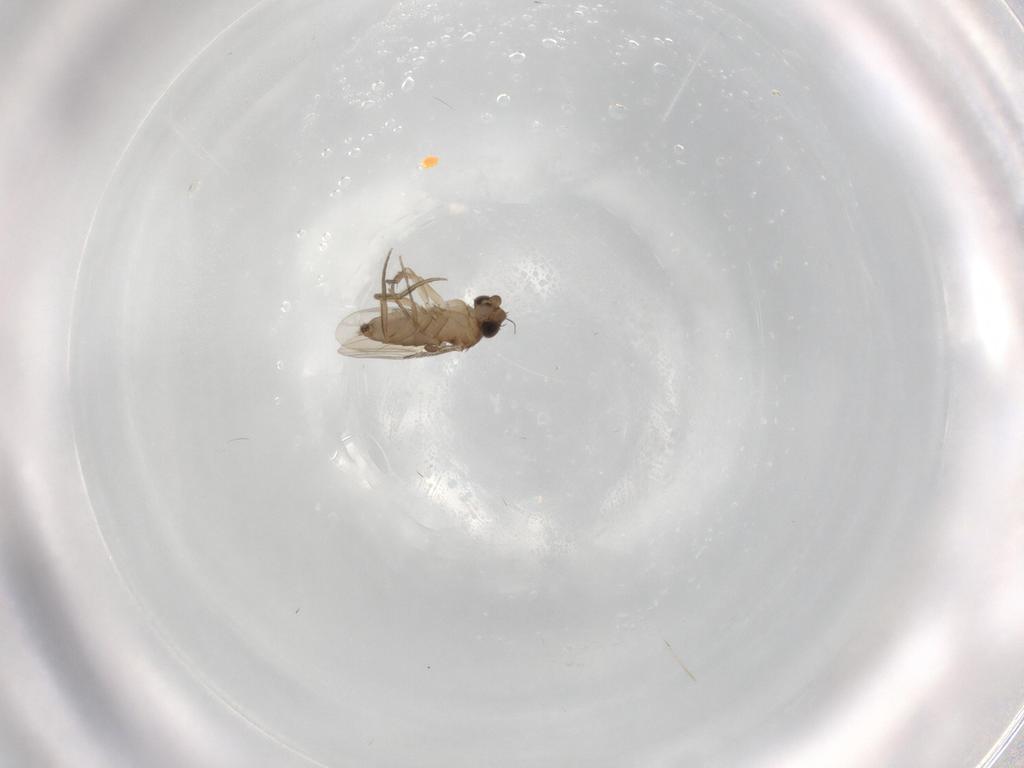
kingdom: Animalia
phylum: Arthropoda
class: Insecta
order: Diptera
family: Phoridae
